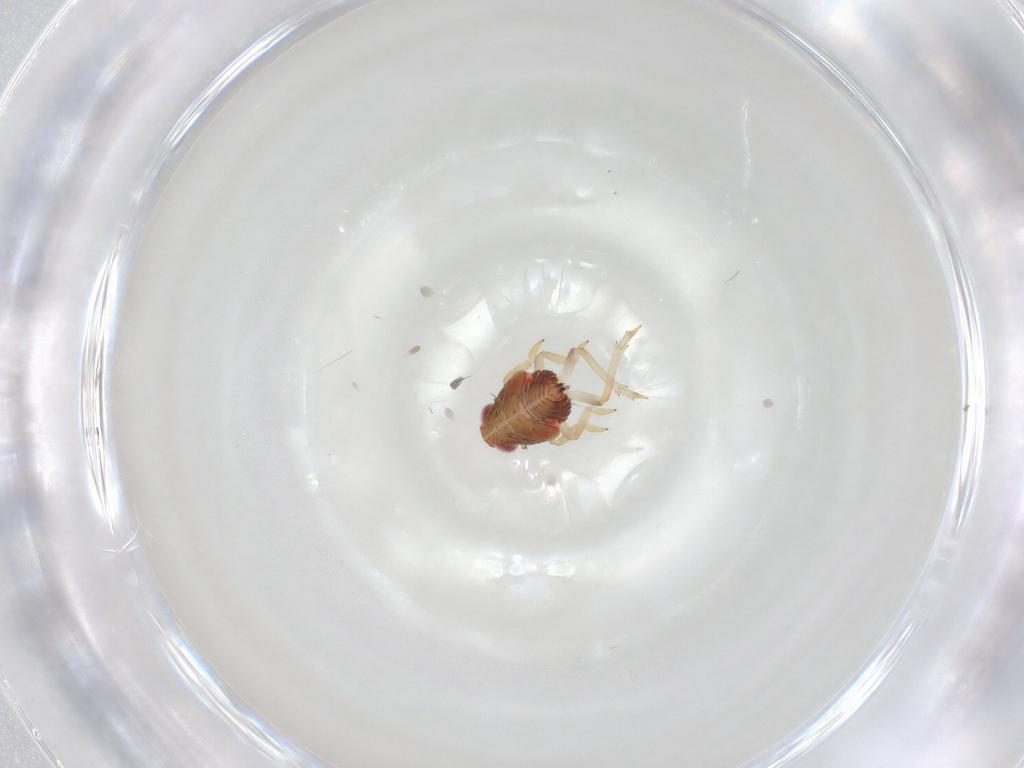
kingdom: Animalia
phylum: Arthropoda
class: Insecta
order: Hemiptera
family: Issidae
